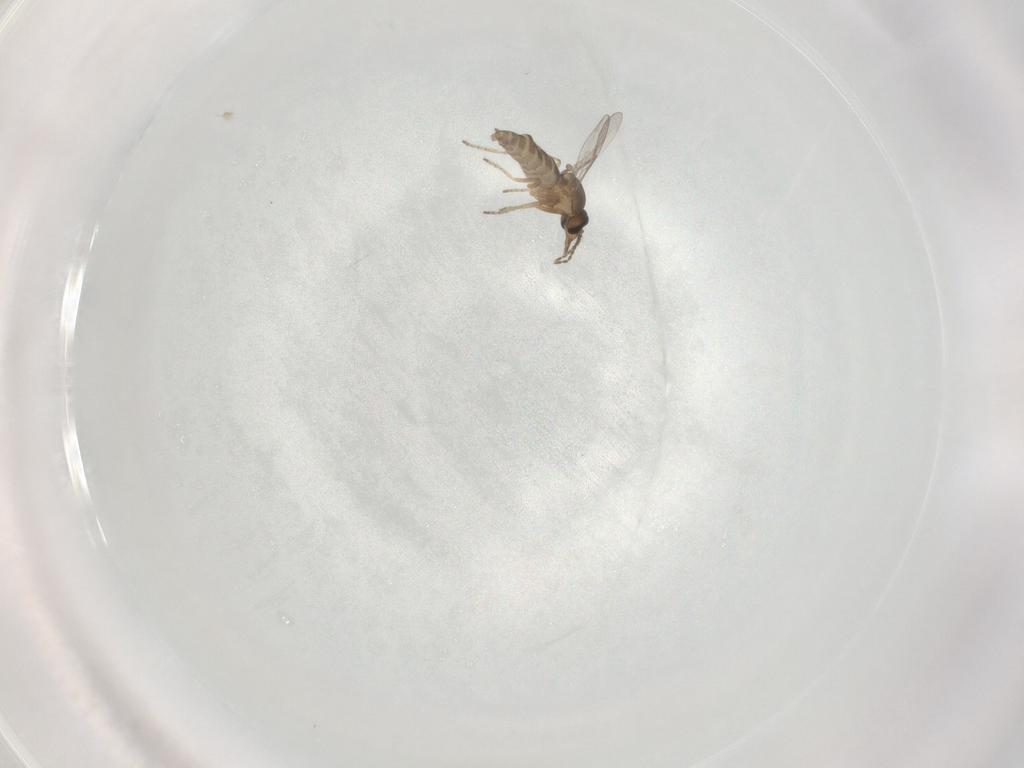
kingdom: Animalia
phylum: Arthropoda
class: Insecta
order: Diptera
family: Ceratopogonidae
